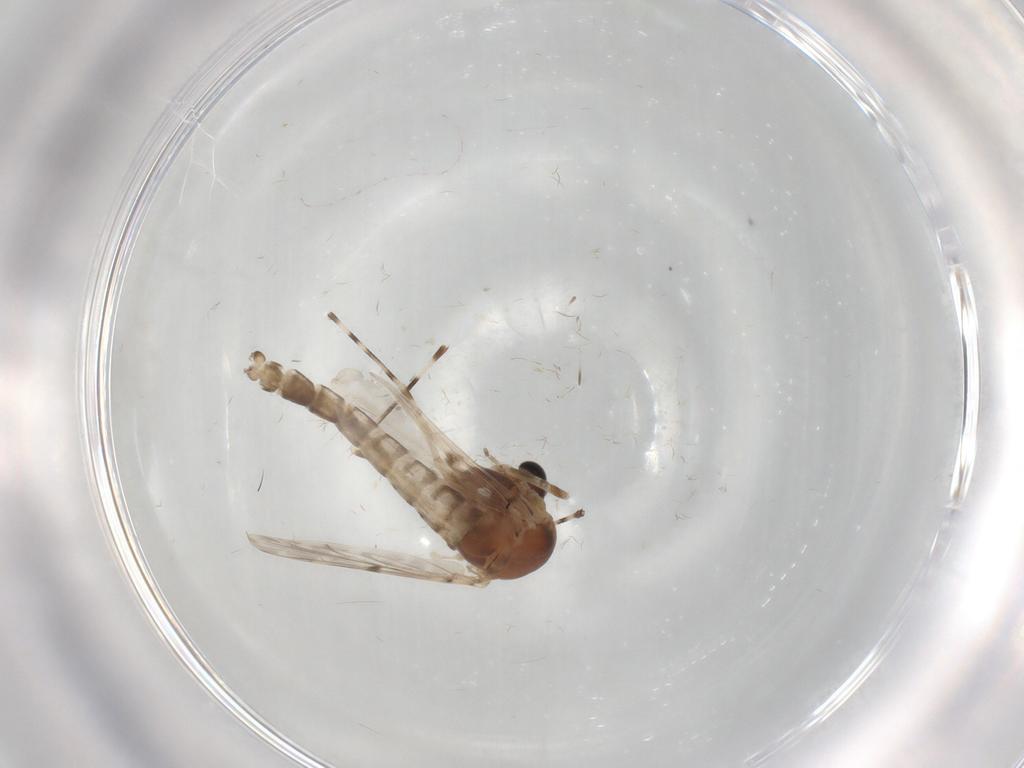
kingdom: Animalia
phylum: Arthropoda
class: Insecta
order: Diptera
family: Chironomidae
